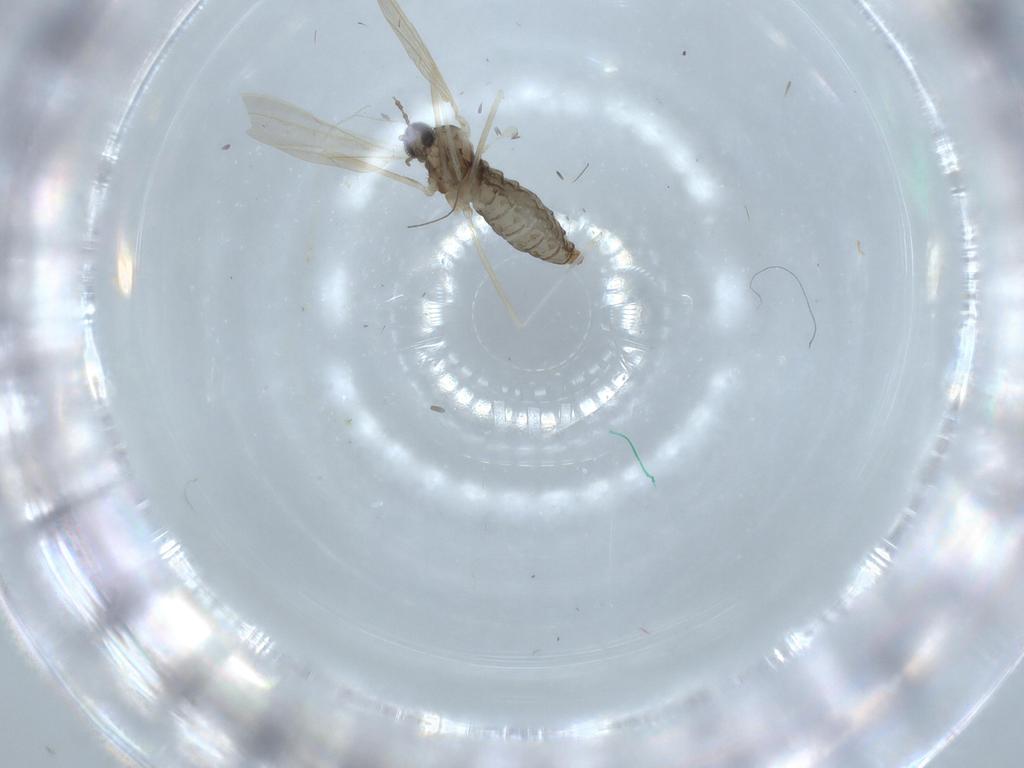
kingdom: Animalia
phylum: Arthropoda
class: Insecta
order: Diptera
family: Cecidomyiidae
